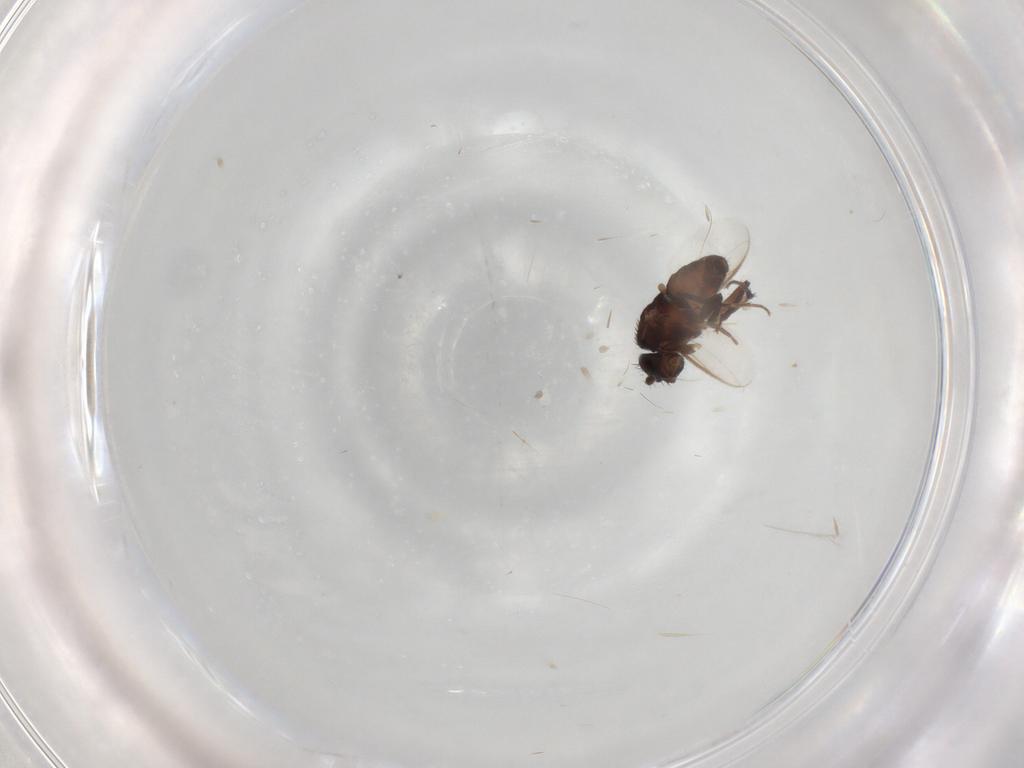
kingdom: Animalia
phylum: Arthropoda
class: Insecta
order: Diptera
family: Sphaeroceridae
